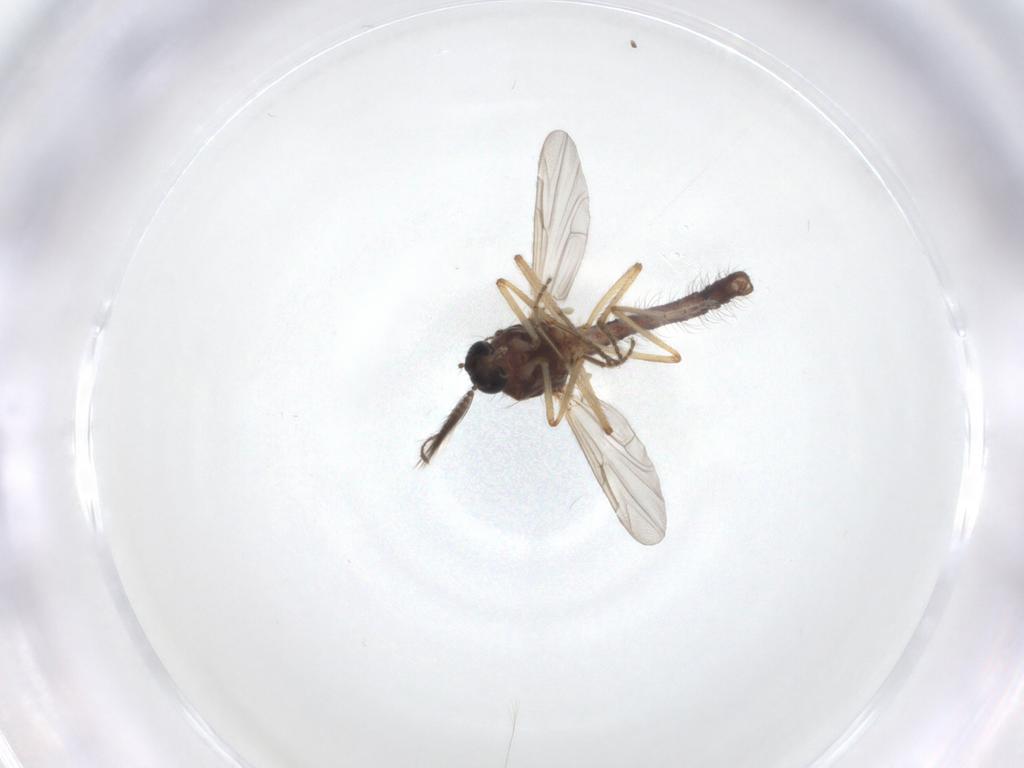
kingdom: Animalia
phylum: Arthropoda
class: Insecta
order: Diptera
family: Ceratopogonidae
